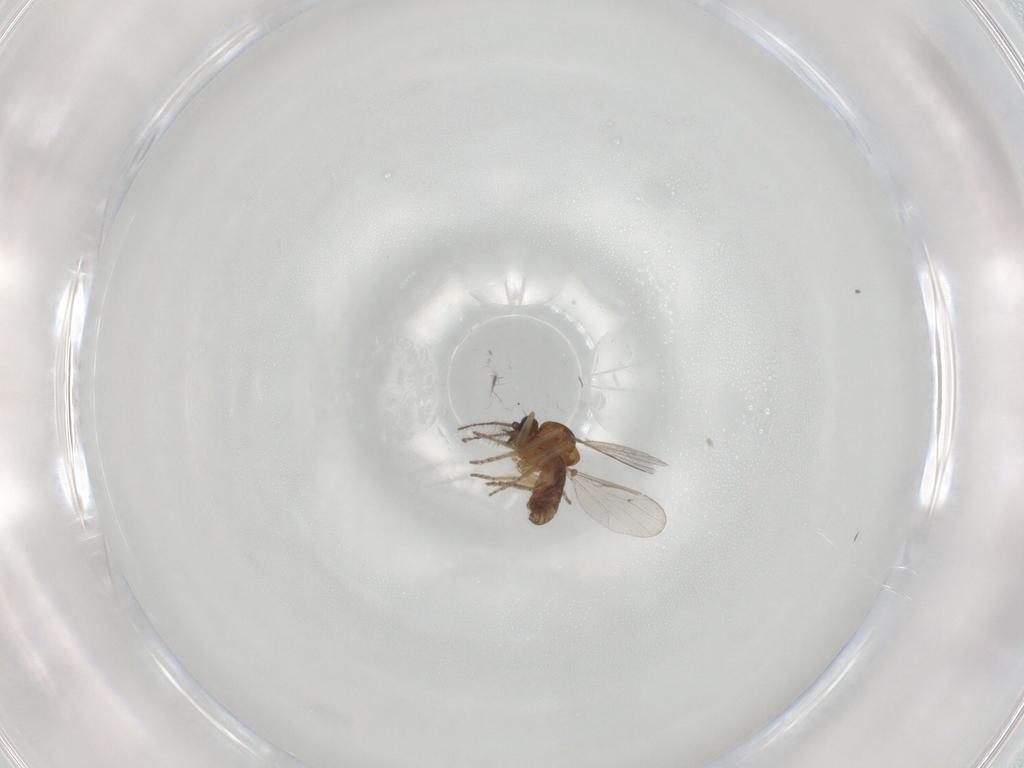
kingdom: Animalia
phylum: Arthropoda
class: Insecta
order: Diptera
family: Ceratopogonidae
